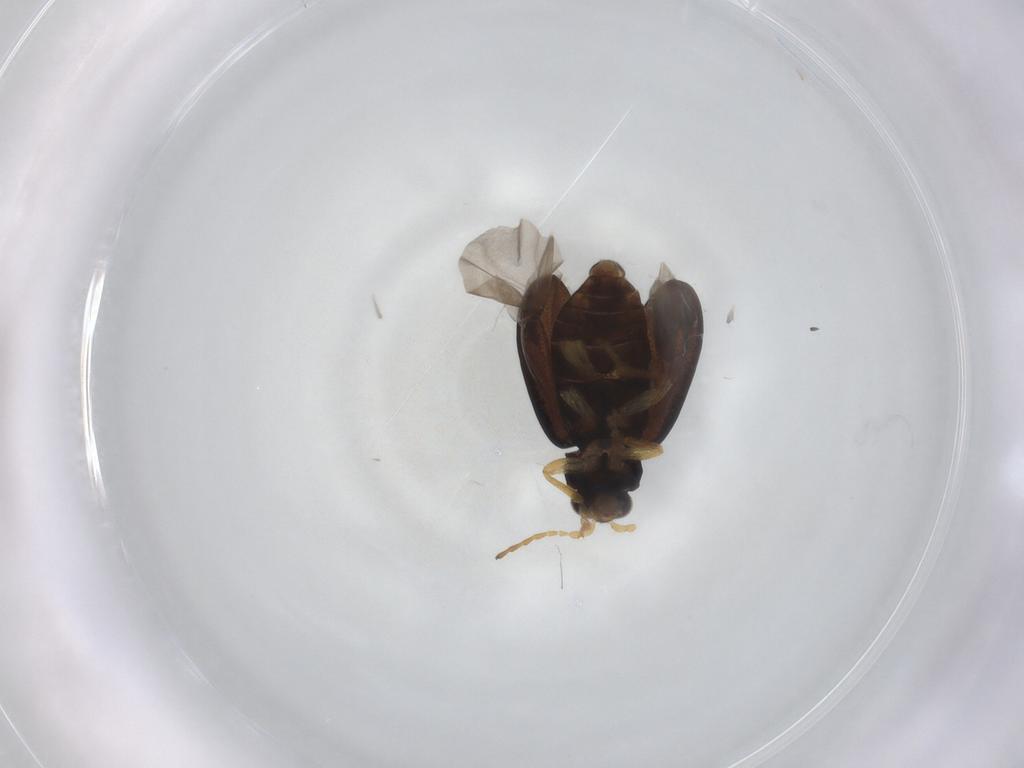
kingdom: Animalia
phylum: Arthropoda
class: Insecta
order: Coleoptera
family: Chrysomelidae
